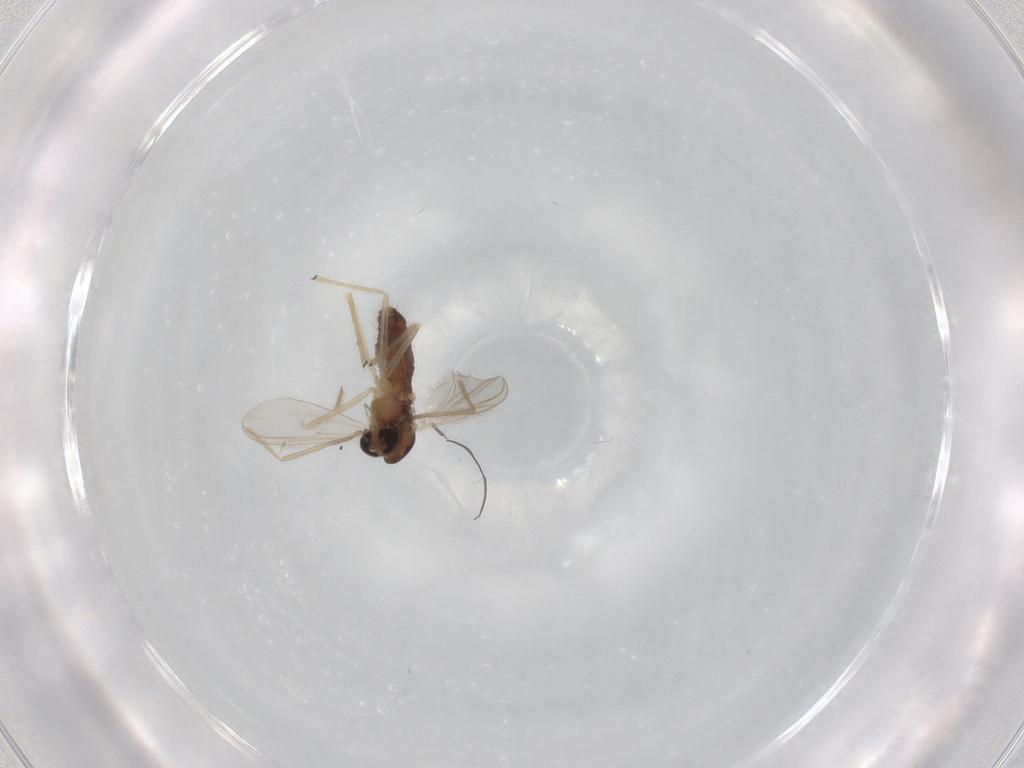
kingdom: Animalia
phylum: Arthropoda
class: Insecta
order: Diptera
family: Chironomidae
